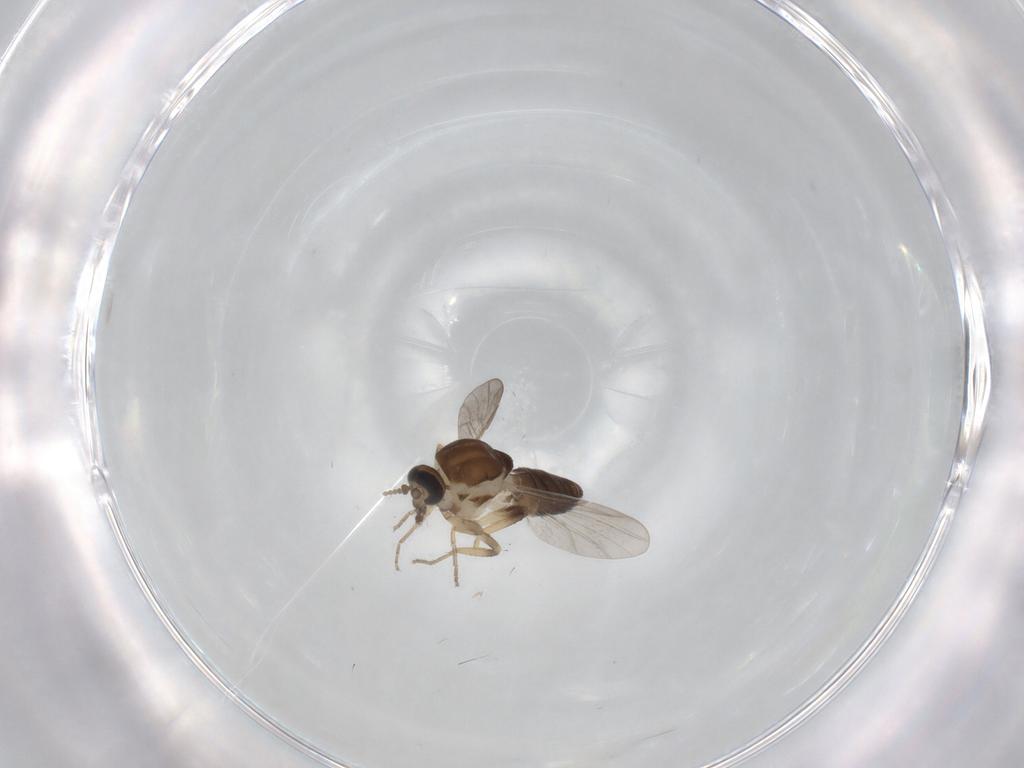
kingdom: Animalia
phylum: Arthropoda
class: Insecta
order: Diptera
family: Ceratopogonidae
